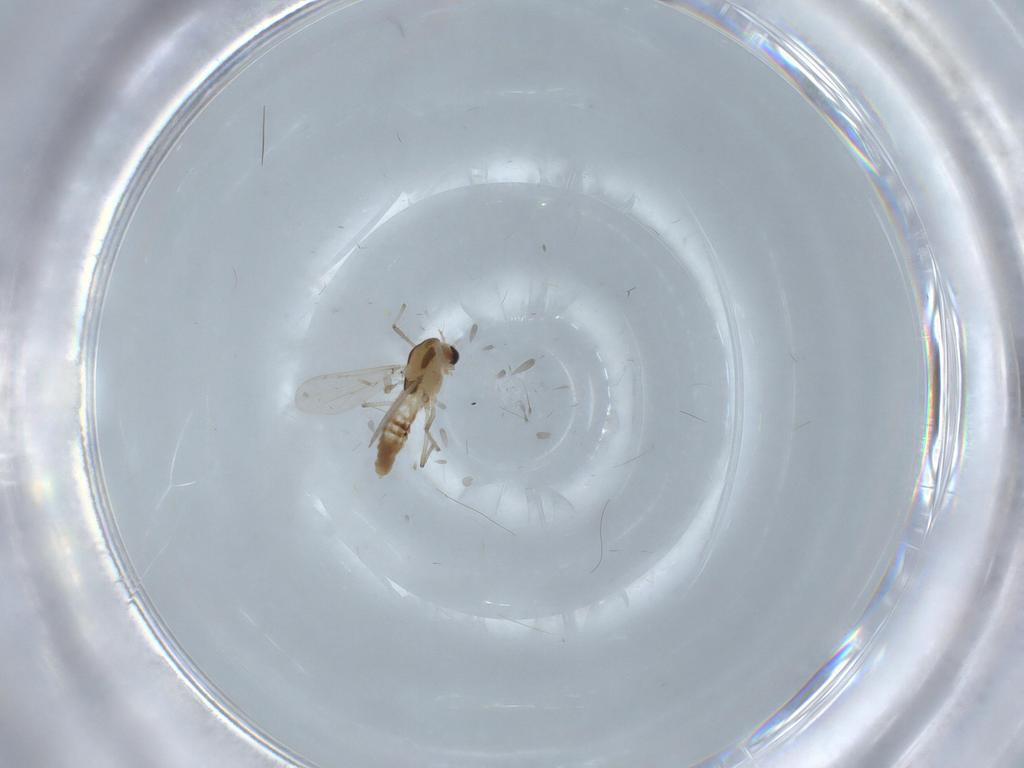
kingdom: Animalia
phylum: Arthropoda
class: Insecta
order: Diptera
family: Chironomidae
